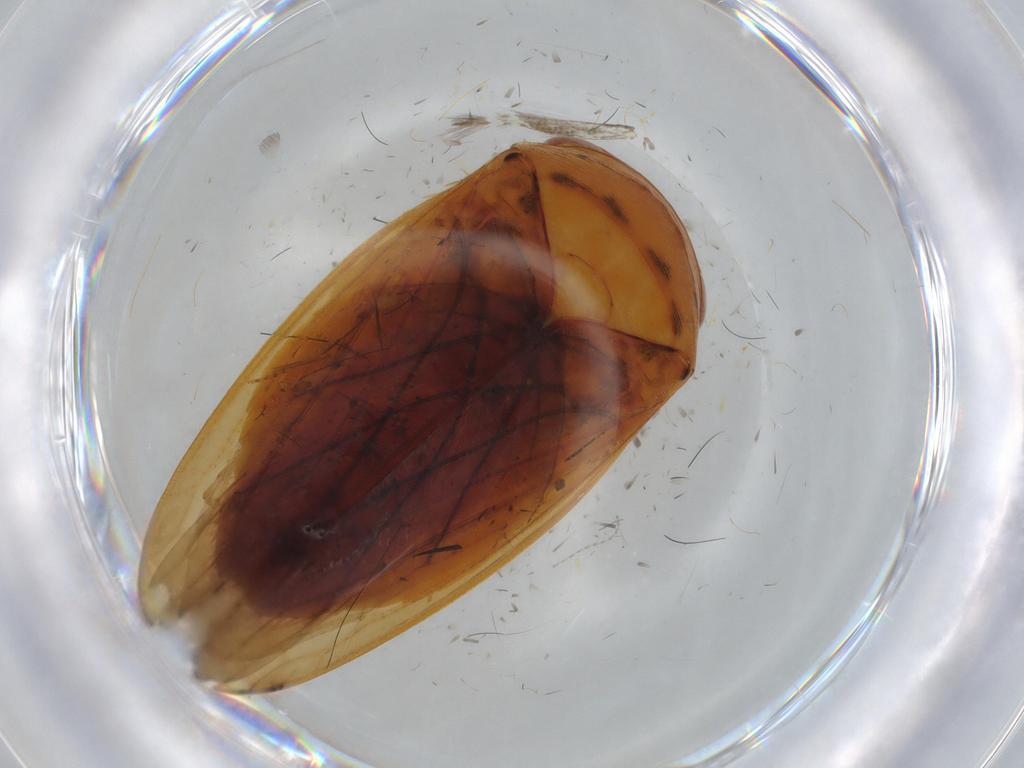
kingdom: Animalia
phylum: Arthropoda
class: Insecta
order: Hemiptera
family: Cicadellidae
